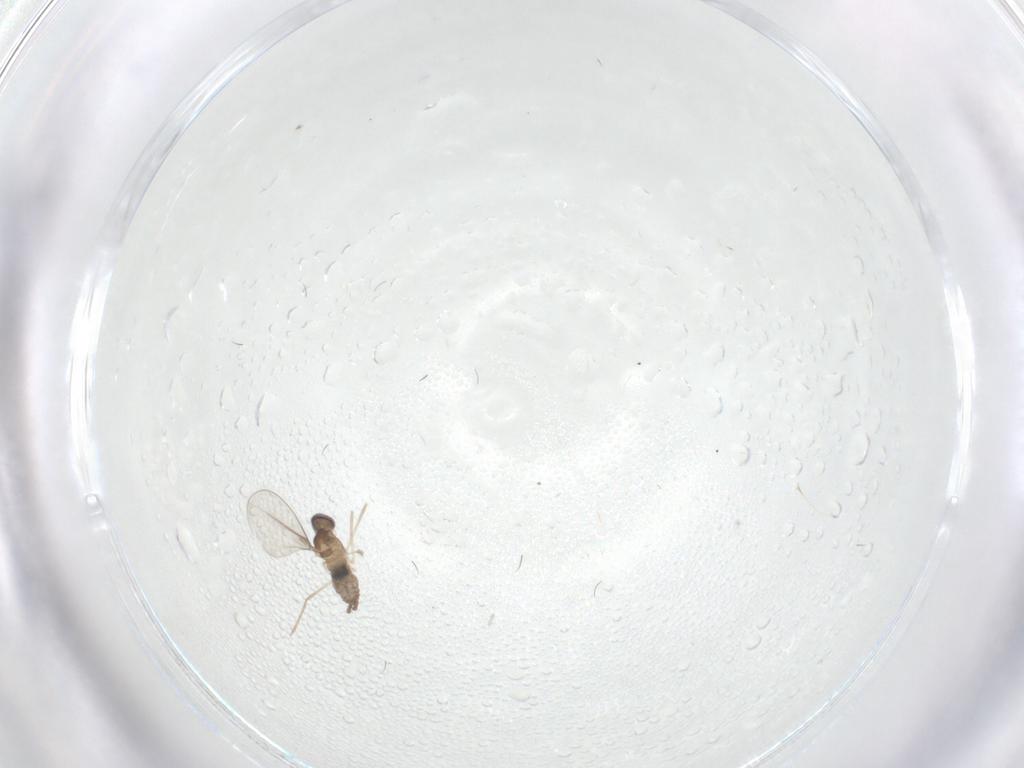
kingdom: Animalia
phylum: Arthropoda
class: Insecta
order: Diptera
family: Cecidomyiidae
